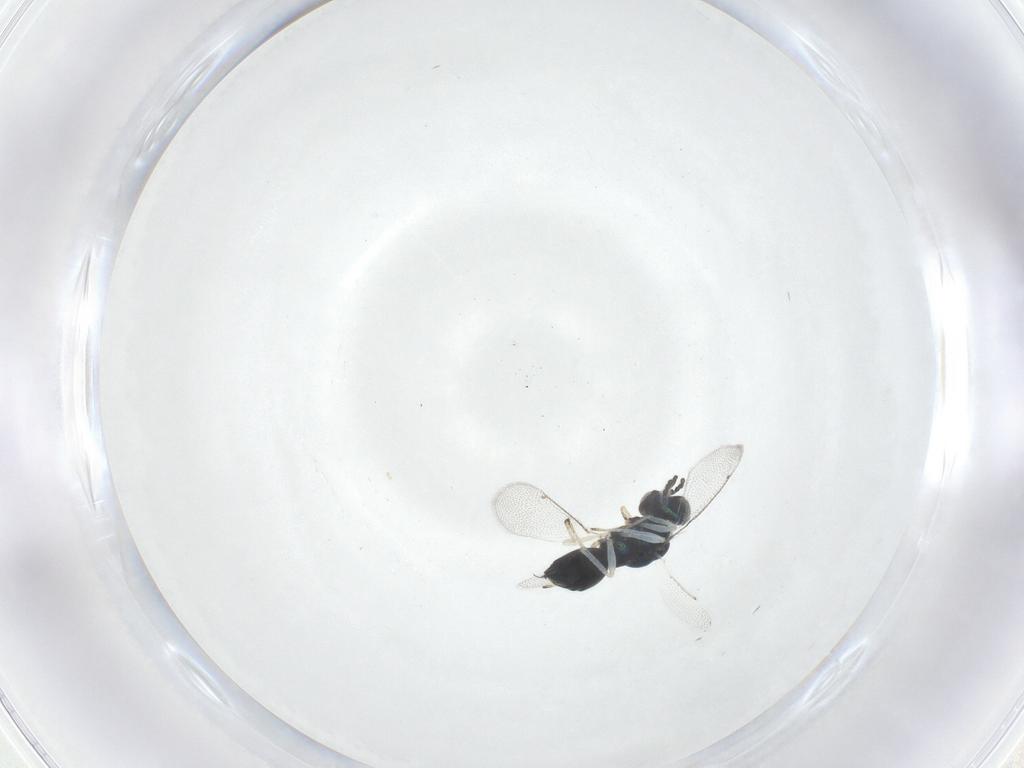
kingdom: Animalia
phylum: Arthropoda
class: Insecta
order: Hymenoptera
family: Eulophidae
